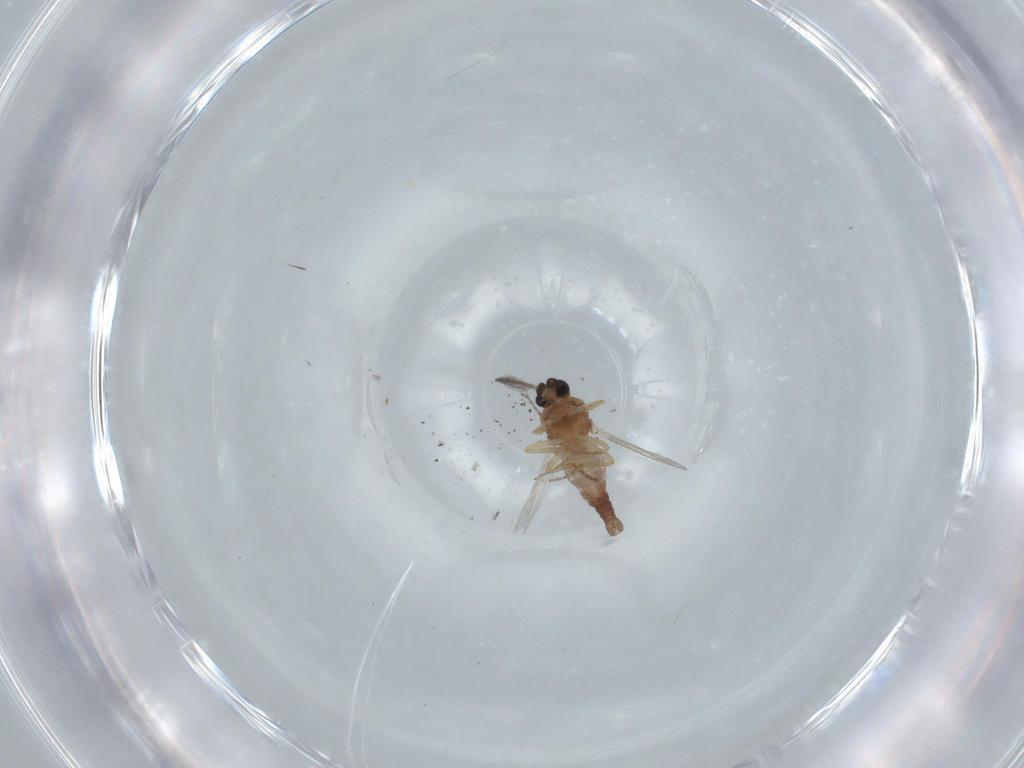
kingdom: Animalia
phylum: Arthropoda
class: Insecta
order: Diptera
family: Ceratopogonidae
